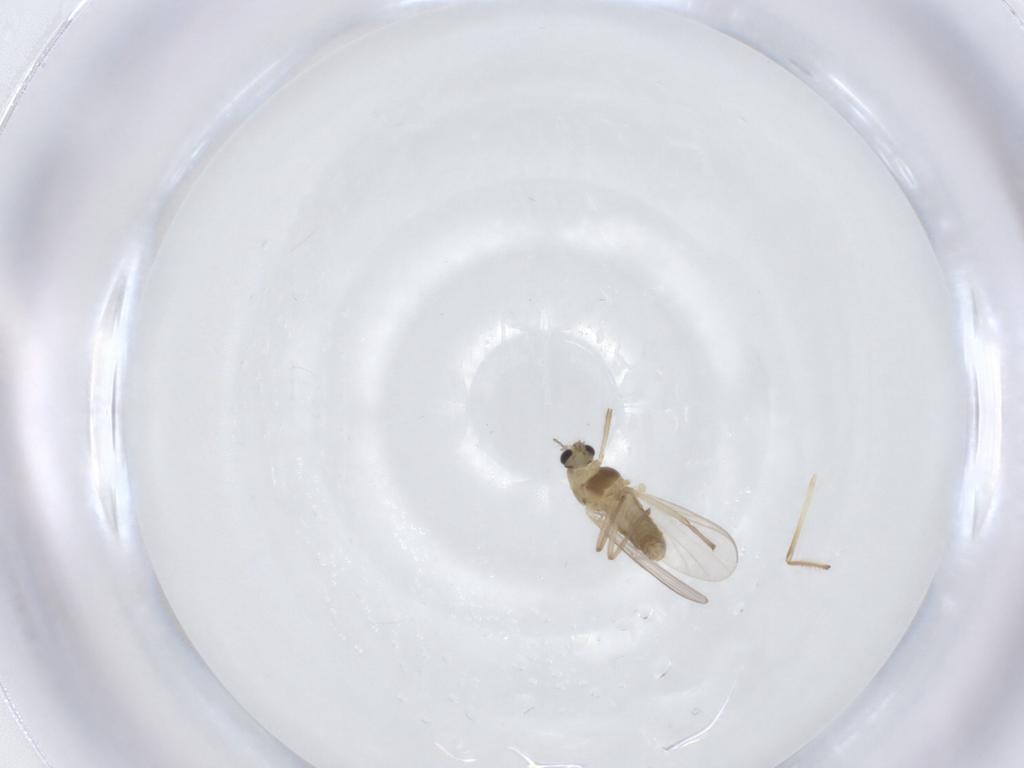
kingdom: Animalia
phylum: Arthropoda
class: Insecta
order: Diptera
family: Chironomidae
